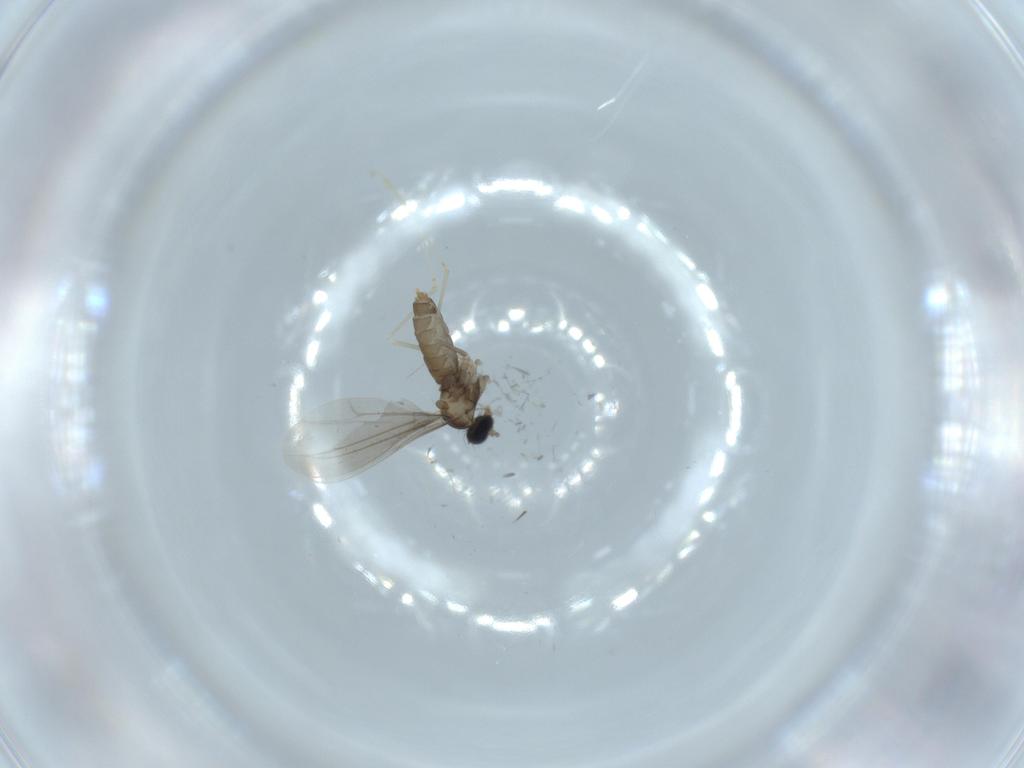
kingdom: Animalia
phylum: Arthropoda
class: Insecta
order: Diptera
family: Cecidomyiidae
